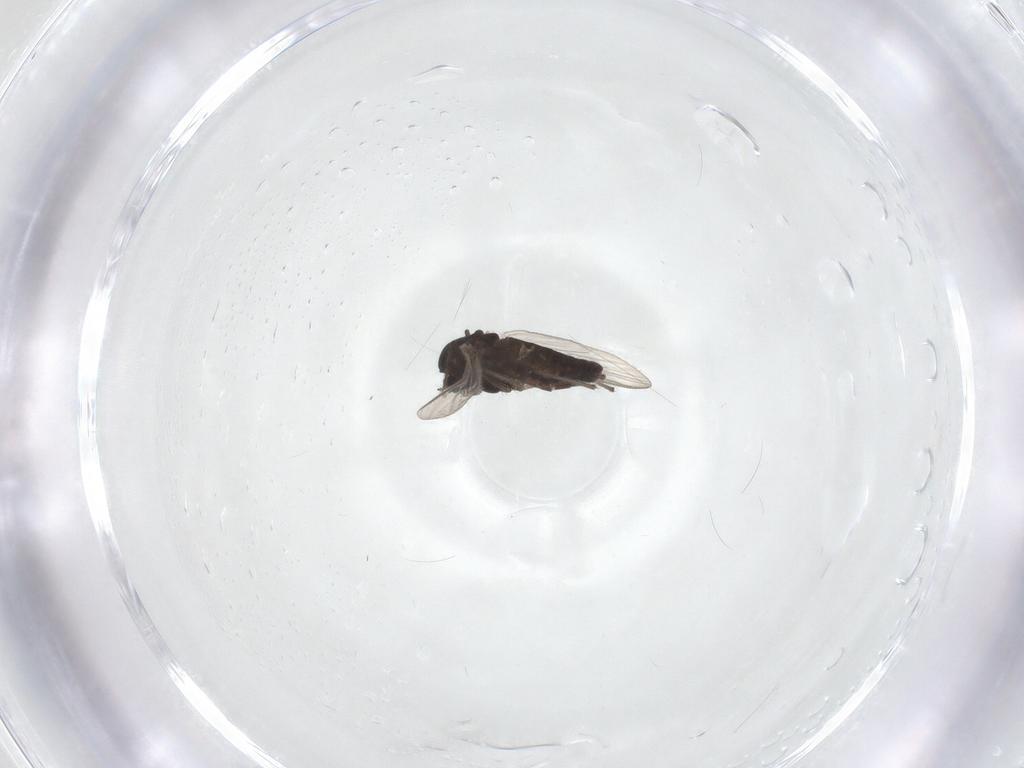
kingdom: Animalia
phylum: Arthropoda
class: Insecta
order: Diptera
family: Chironomidae
